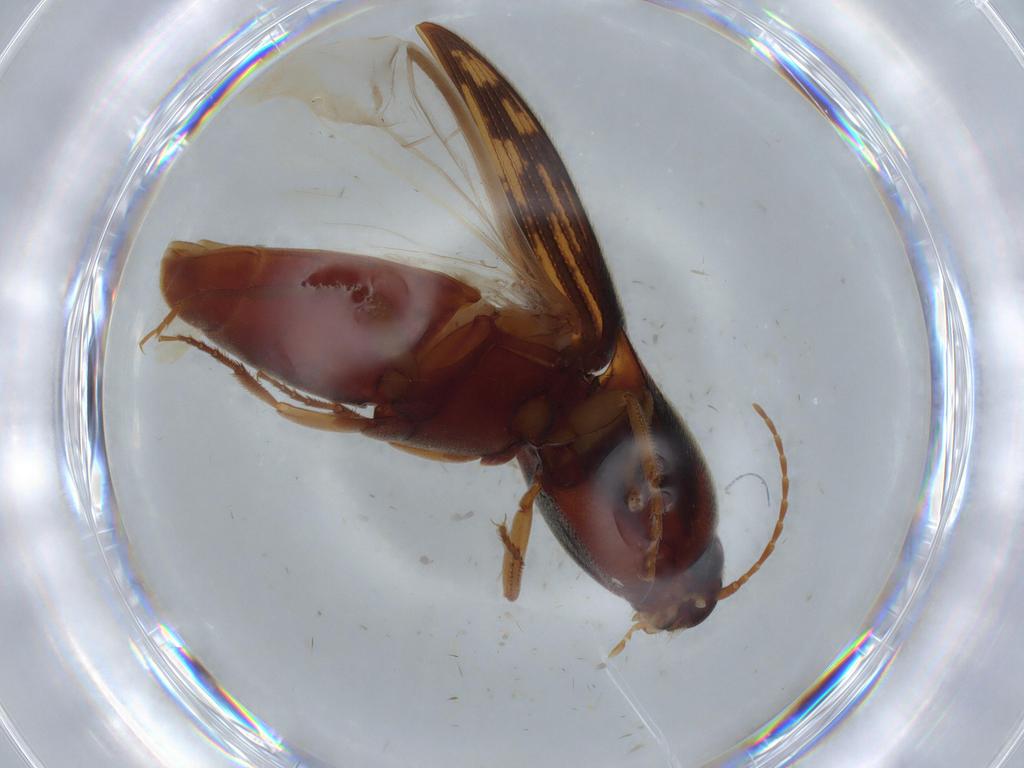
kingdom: Animalia
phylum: Arthropoda
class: Insecta
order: Coleoptera
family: Elateridae
